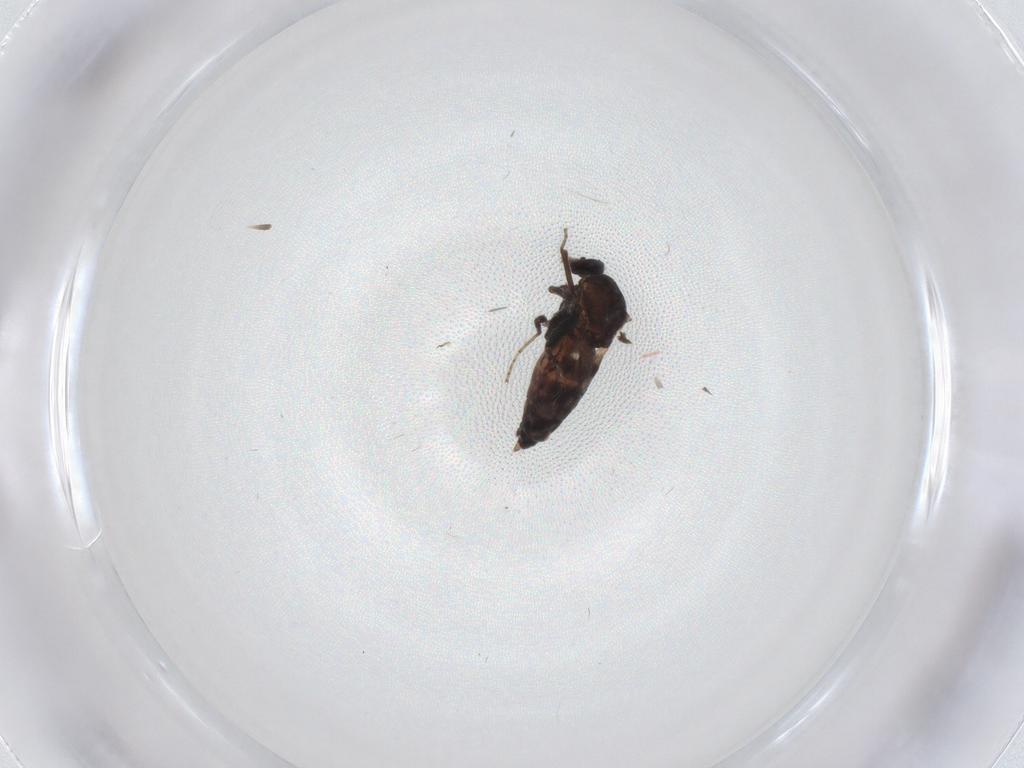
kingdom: Animalia
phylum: Arthropoda
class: Insecta
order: Diptera
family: Ceratopogonidae
